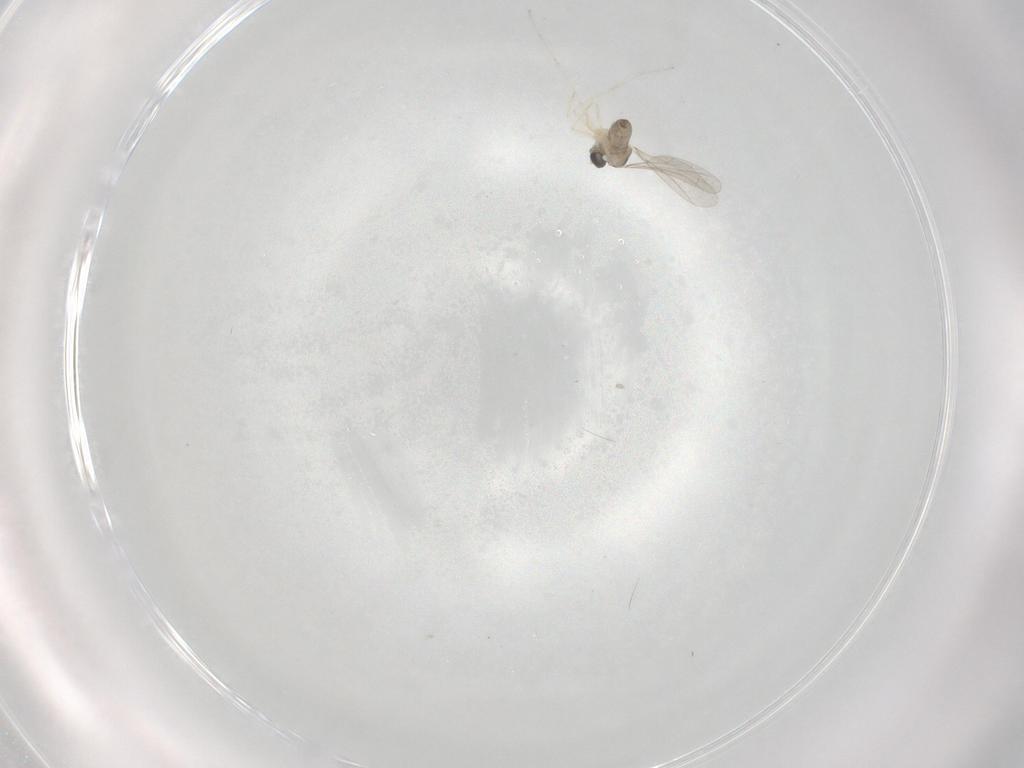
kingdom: Animalia
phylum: Arthropoda
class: Insecta
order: Diptera
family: Cecidomyiidae
